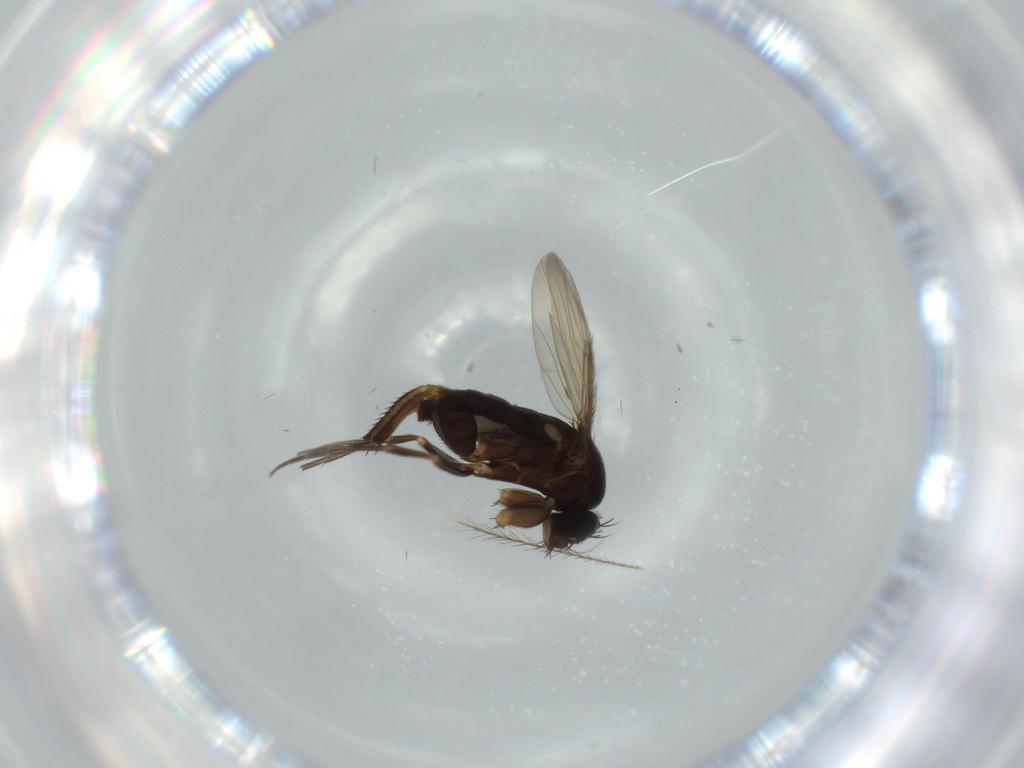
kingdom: Animalia
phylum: Arthropoda
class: Insecta
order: Diptera
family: Phoridae
